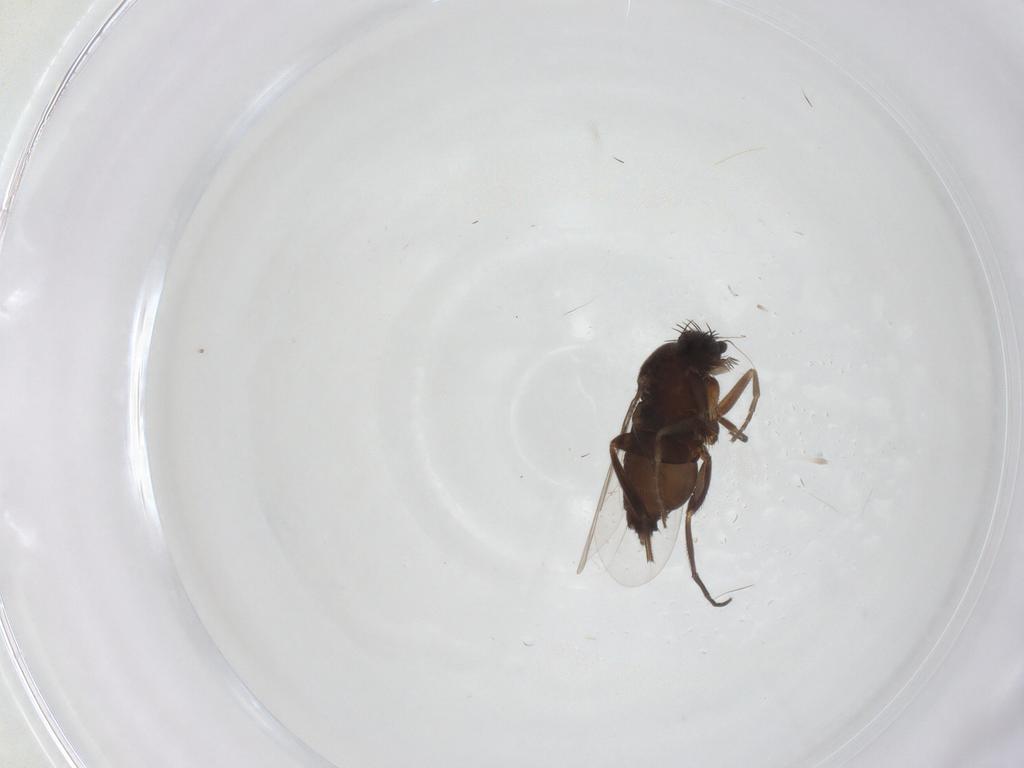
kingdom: Animalia
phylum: Arthropoda
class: Insecta
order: Diptera
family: Phoridae
